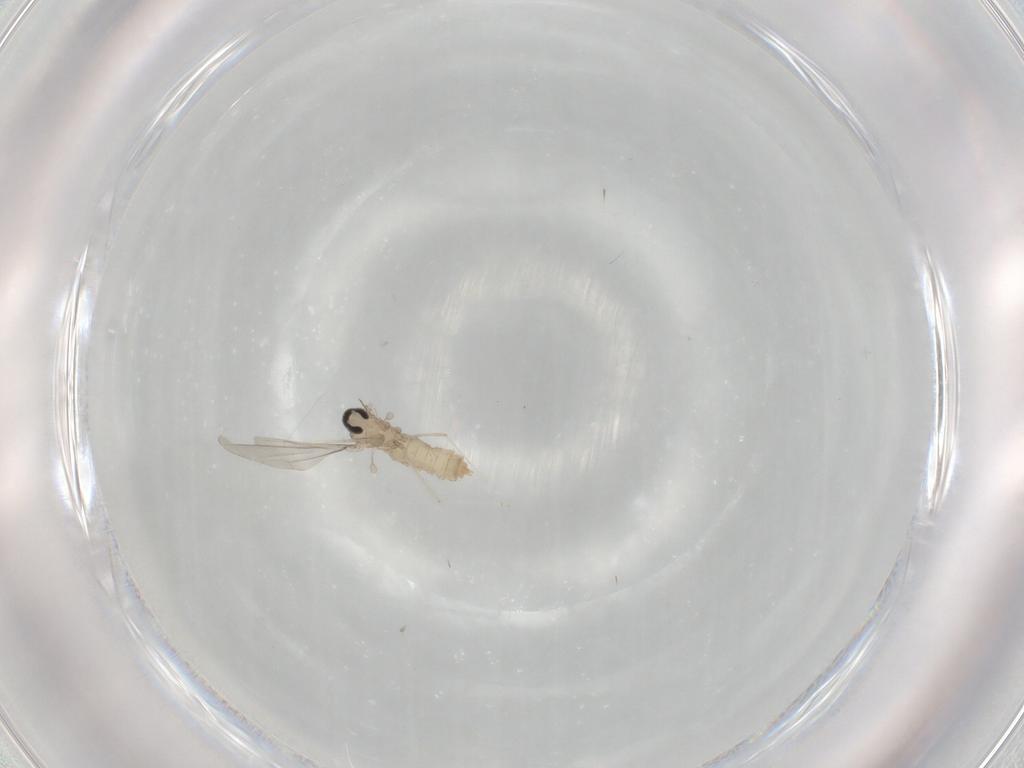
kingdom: Animalia
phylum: Arthropoda
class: Insecta
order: Diptera
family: Cecidomyiidae
